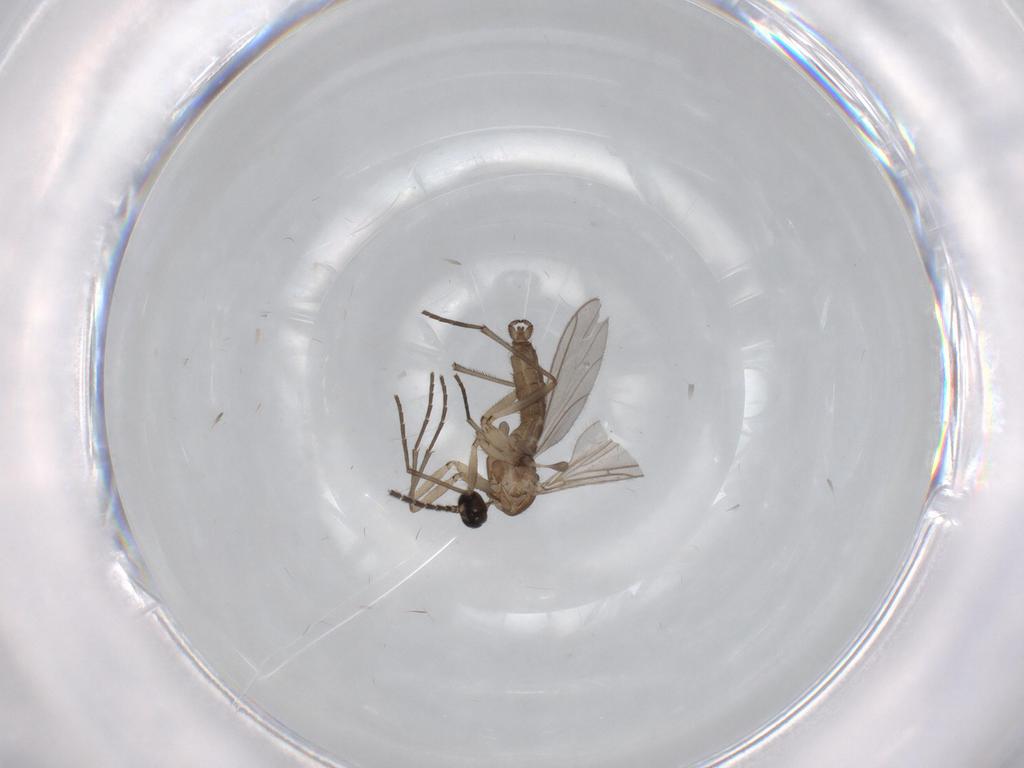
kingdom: Animalia
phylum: Arthropoda
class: Insecta
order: Diptera
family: Sciaridae
